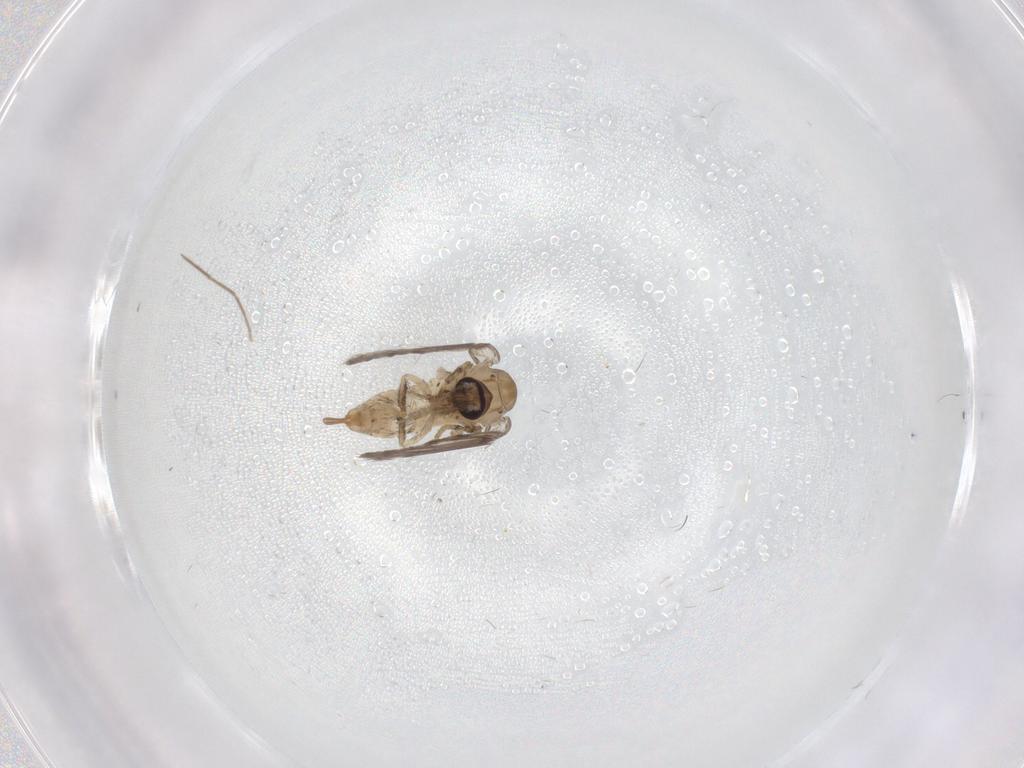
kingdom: Animalia
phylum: Arthropoda
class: Insecta
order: Diptera
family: Psychodidae
